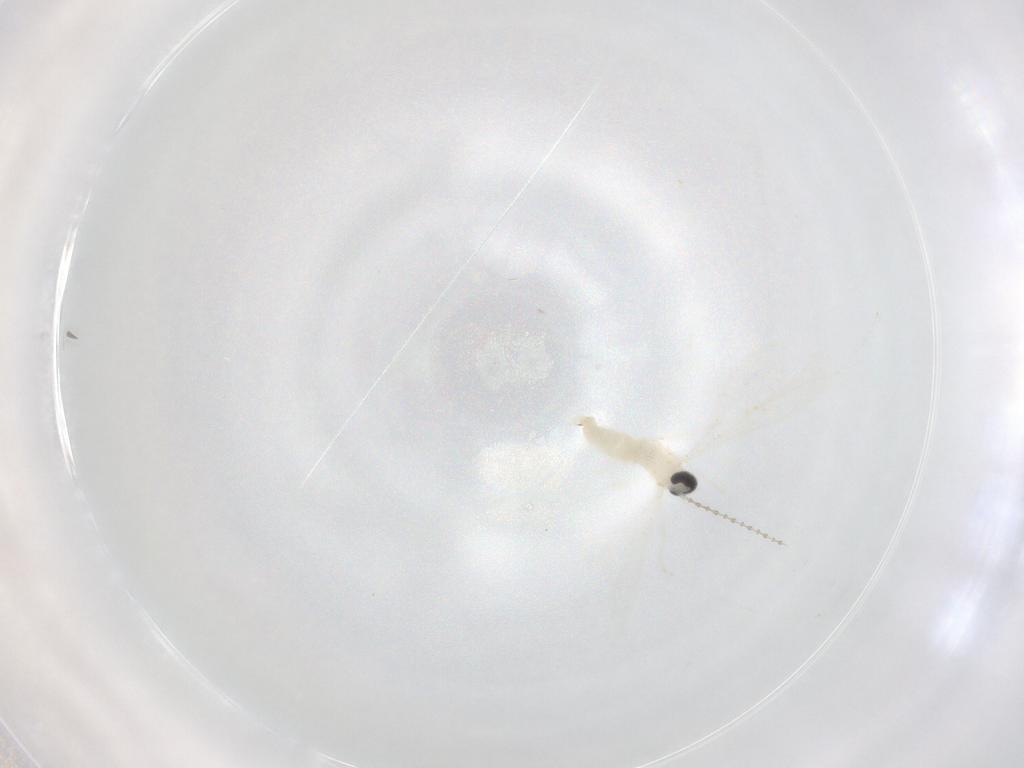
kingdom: Animalia
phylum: Arthropoda
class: Insecta
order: Diptera
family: Cecidomyiidae
